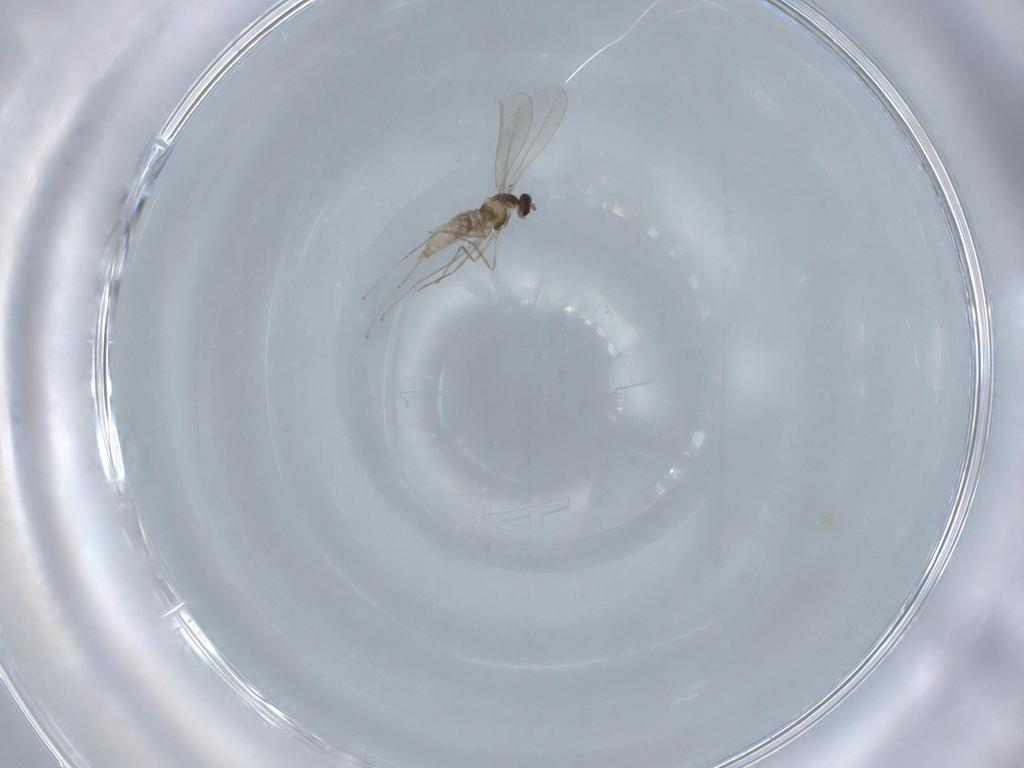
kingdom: Animalia
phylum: Arthropoda
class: Insecta
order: Diptera
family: Cecidomyiidae
